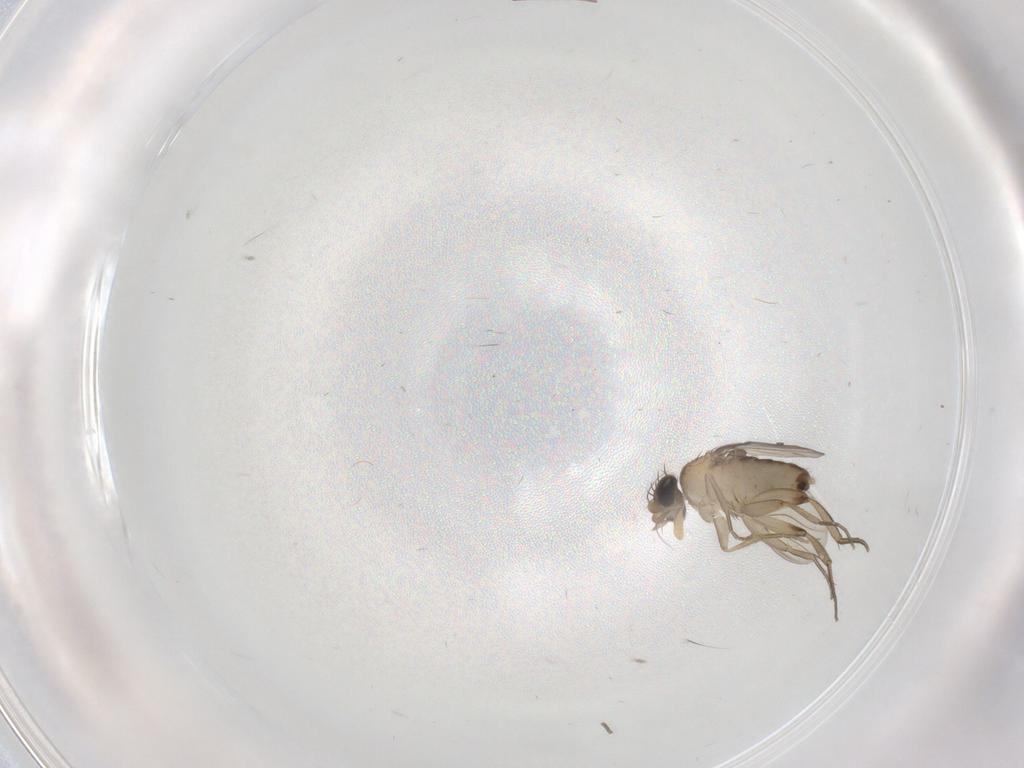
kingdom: Animalia
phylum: Arthropoda
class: Insecta
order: Diptera
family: Phoridae
